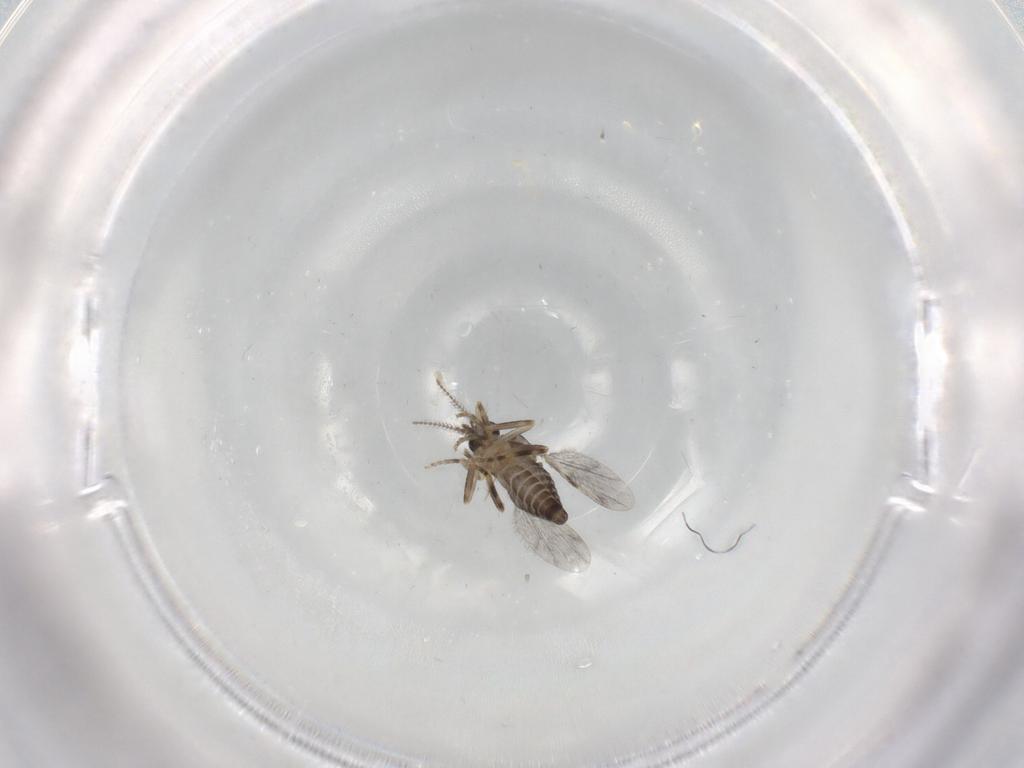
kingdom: Animalia
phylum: Arthropoda
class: Insecta
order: Diptera
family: Ceratopogonidae
